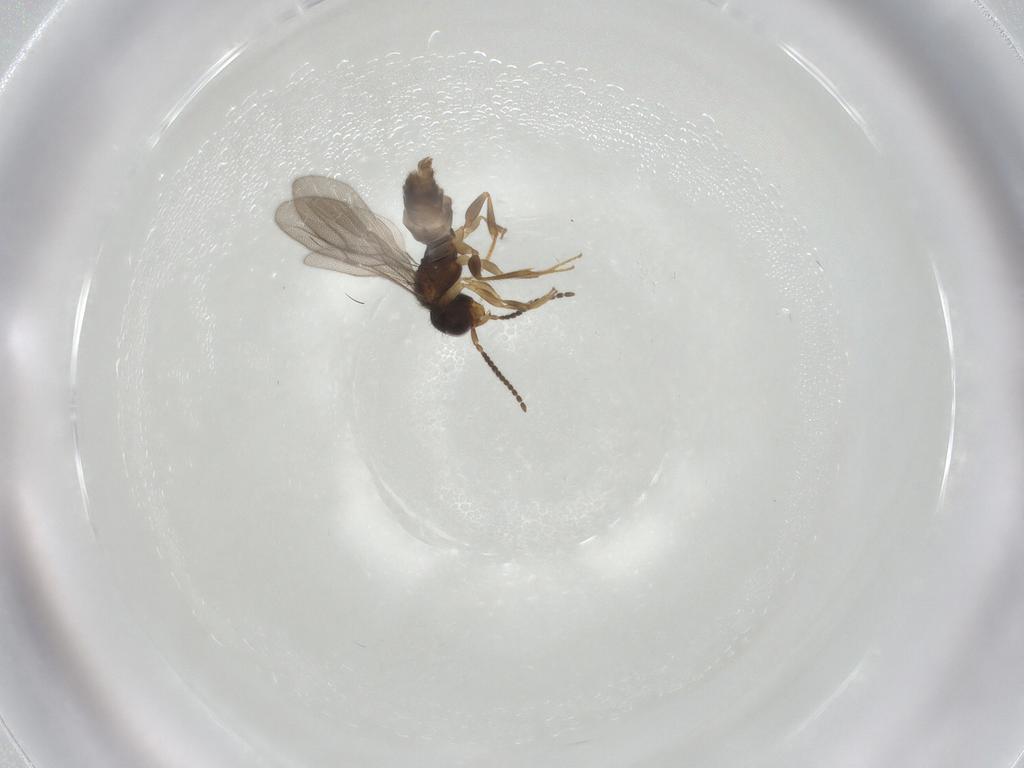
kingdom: Animalia
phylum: Arthropoda
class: Insecta
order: Hymenoptera
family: Bethylidae
